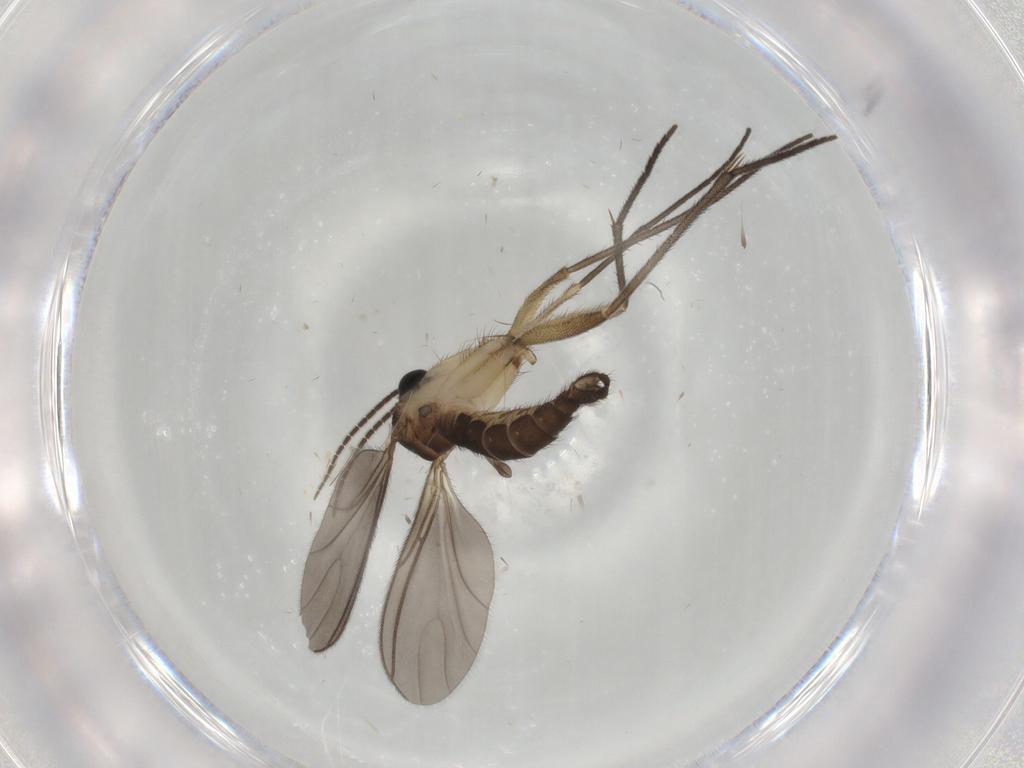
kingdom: Animalia
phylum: Arthropoda
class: Insecta
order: Diptera
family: Sciaridae
